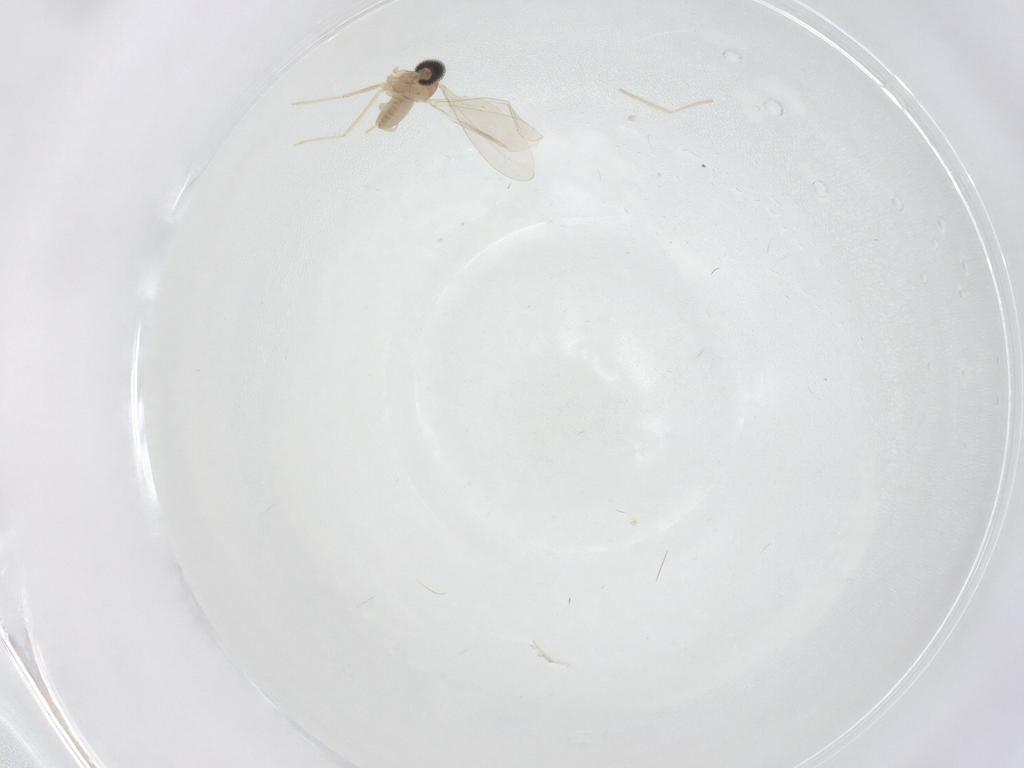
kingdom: Animalia
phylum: Arthropoda
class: Insecta
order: Diptera
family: Cecidomyiidae
